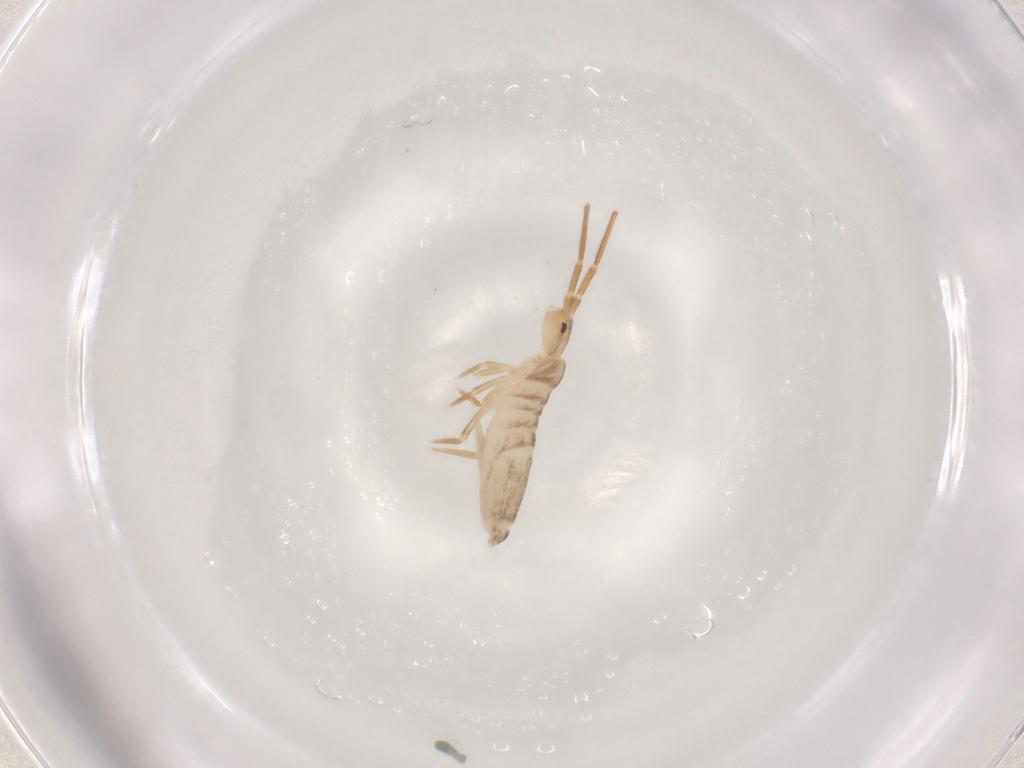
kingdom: Animalia
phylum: Arthropoda
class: Collembola
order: Entomobryomorpha
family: Entomobryidae
